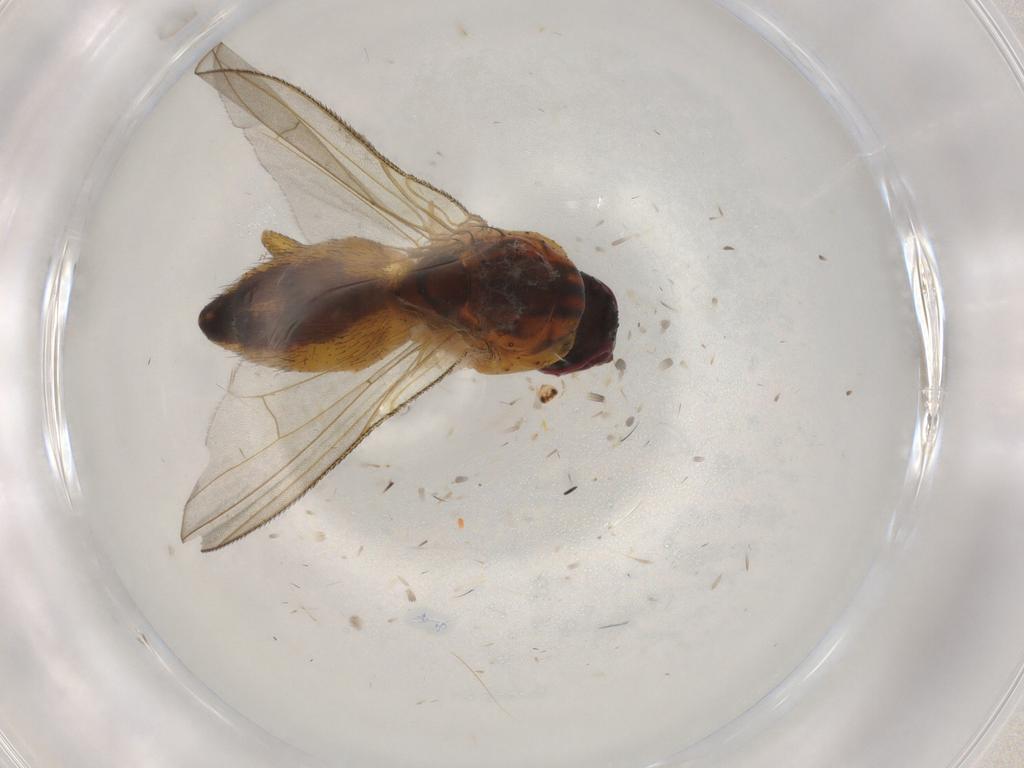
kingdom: Animalia
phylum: Arthropoda
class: Insecta
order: Diptera
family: Muscidae
